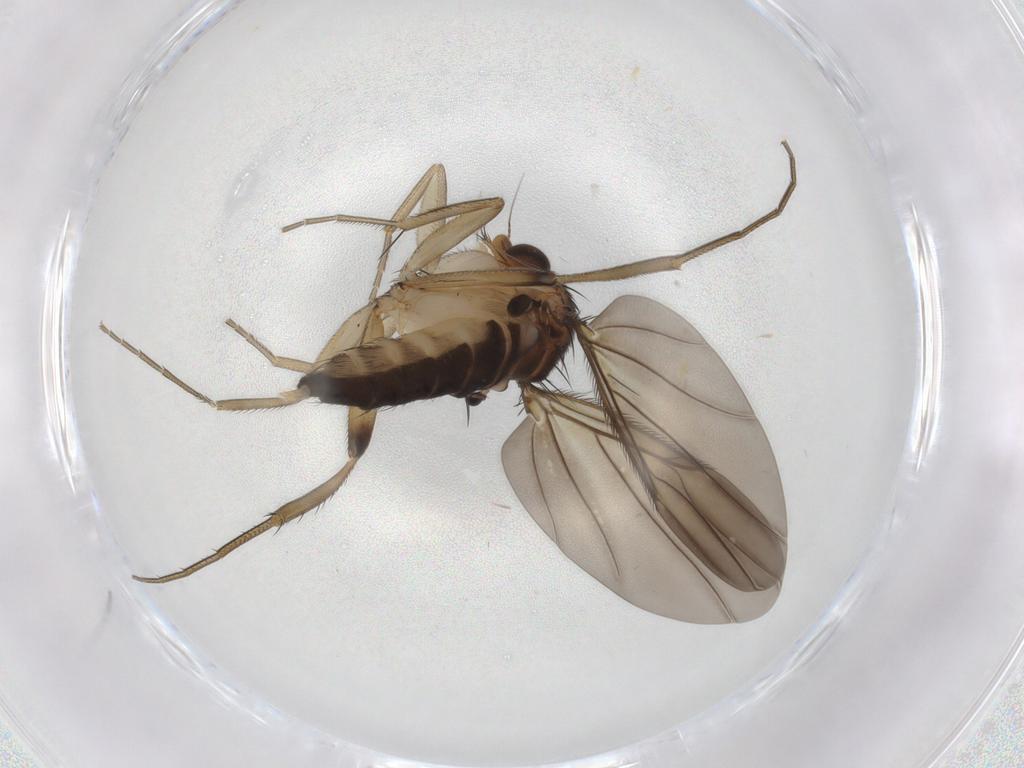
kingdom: Animalia
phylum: Arthropoda
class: Insecta
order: Diptera
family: Phoridae
